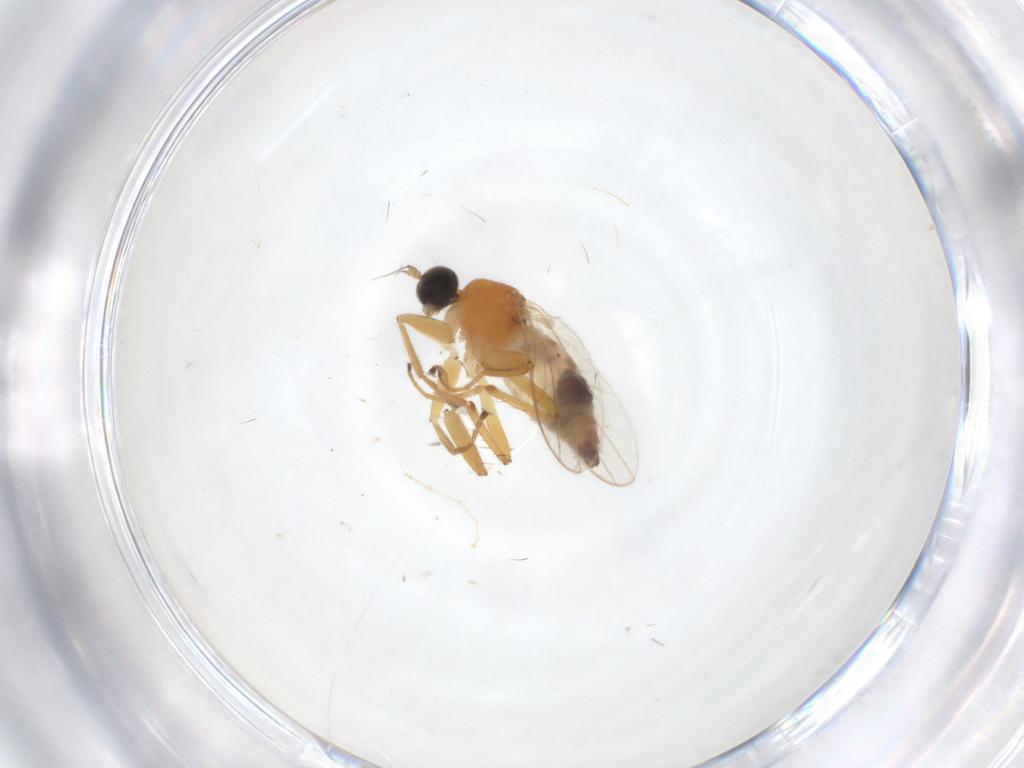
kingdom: Animalia
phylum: Arthropoda
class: Insecta
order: Diptera
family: Hybotidae
